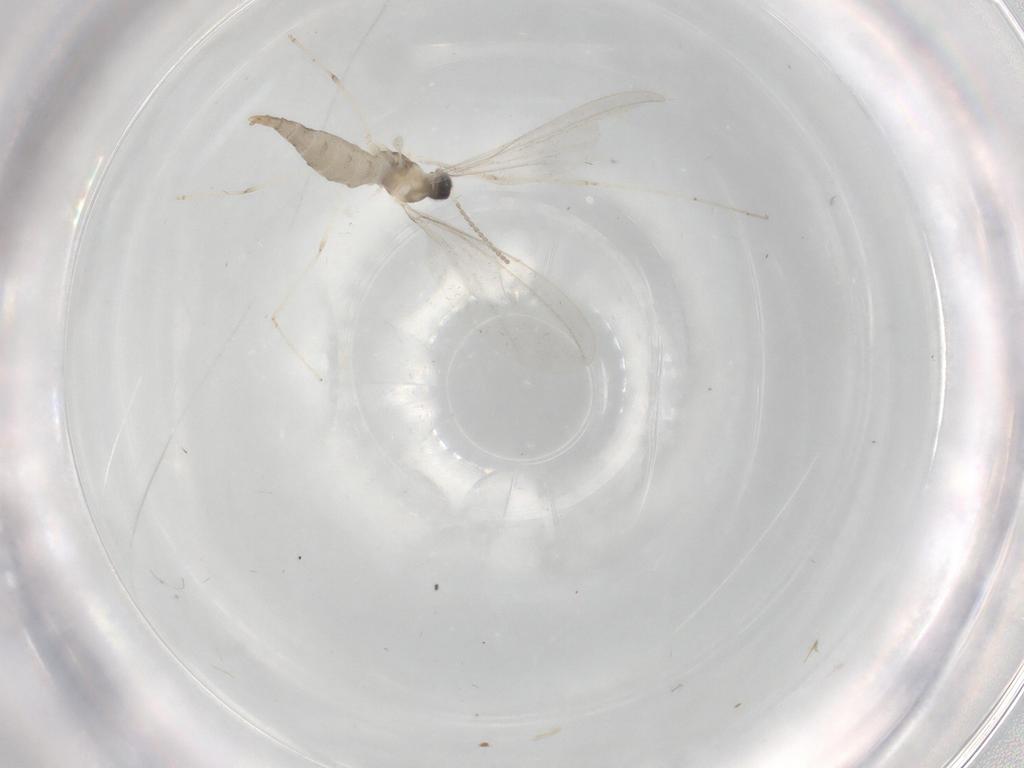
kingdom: Animalia
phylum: Arthropoda
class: Insecta
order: Diptera
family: Cecidomyiidae
